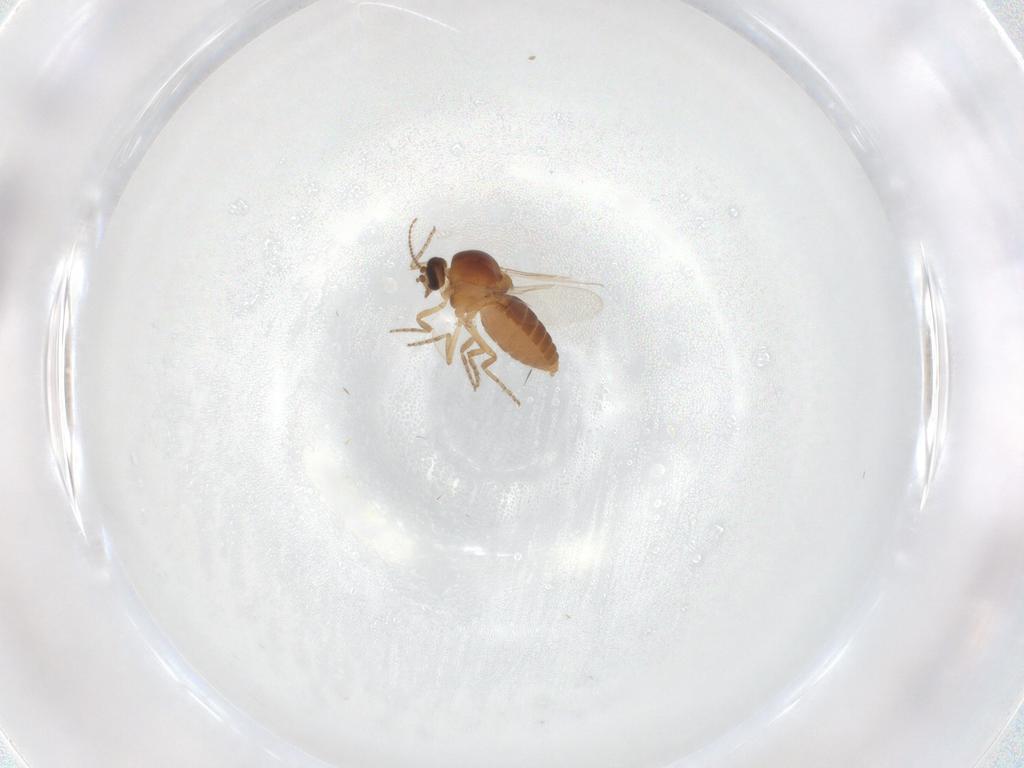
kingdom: Animalia
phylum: Arthropoda
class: Insecta
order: Diptera
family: Ceratopogonidae
